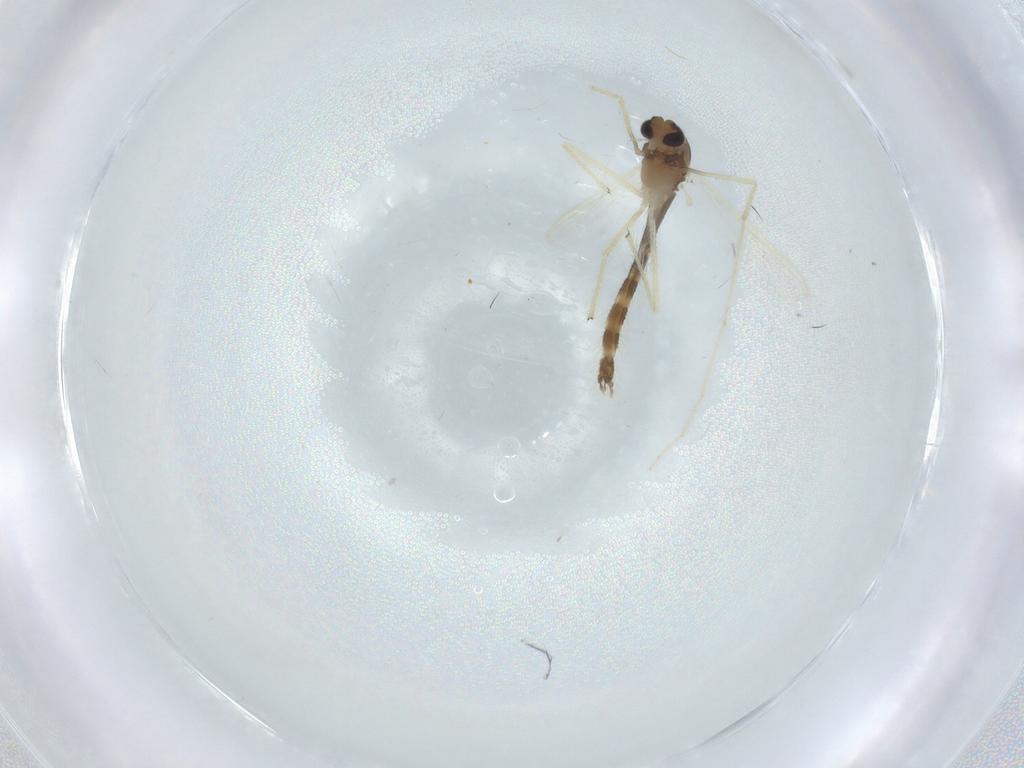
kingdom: Animalia
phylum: Arthropoda
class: Insecta
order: Diptera
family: Chironomidae
